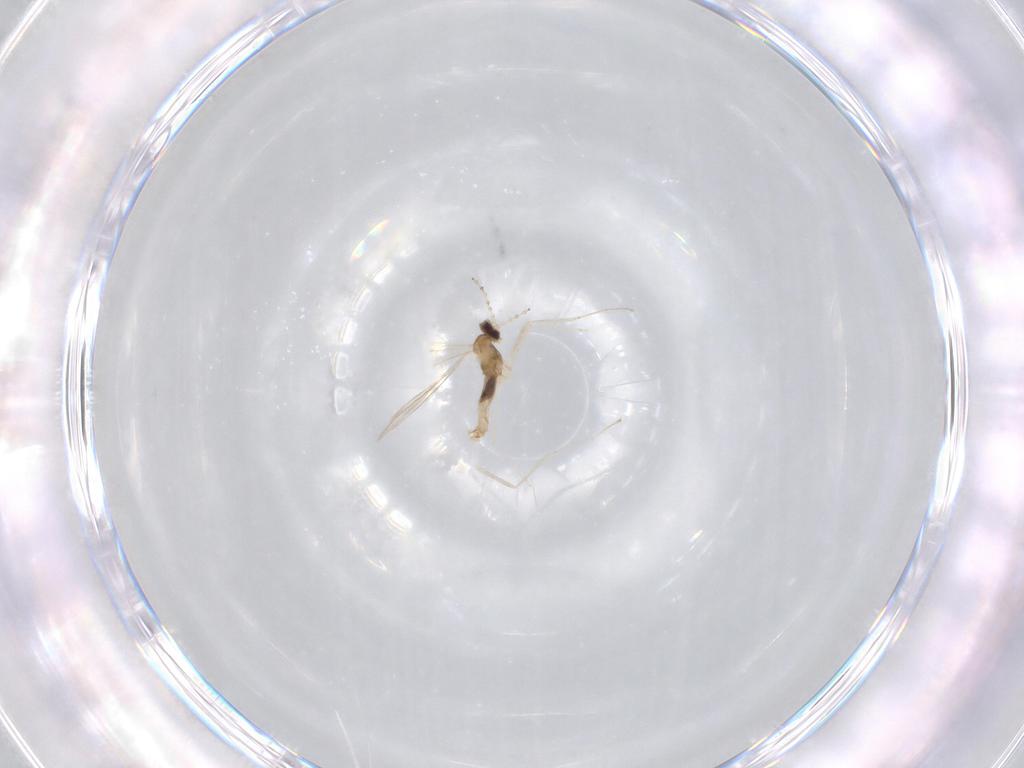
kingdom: Animalia
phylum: Arthropoda
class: Insecta
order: Diptera
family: Cecidomyiidae
